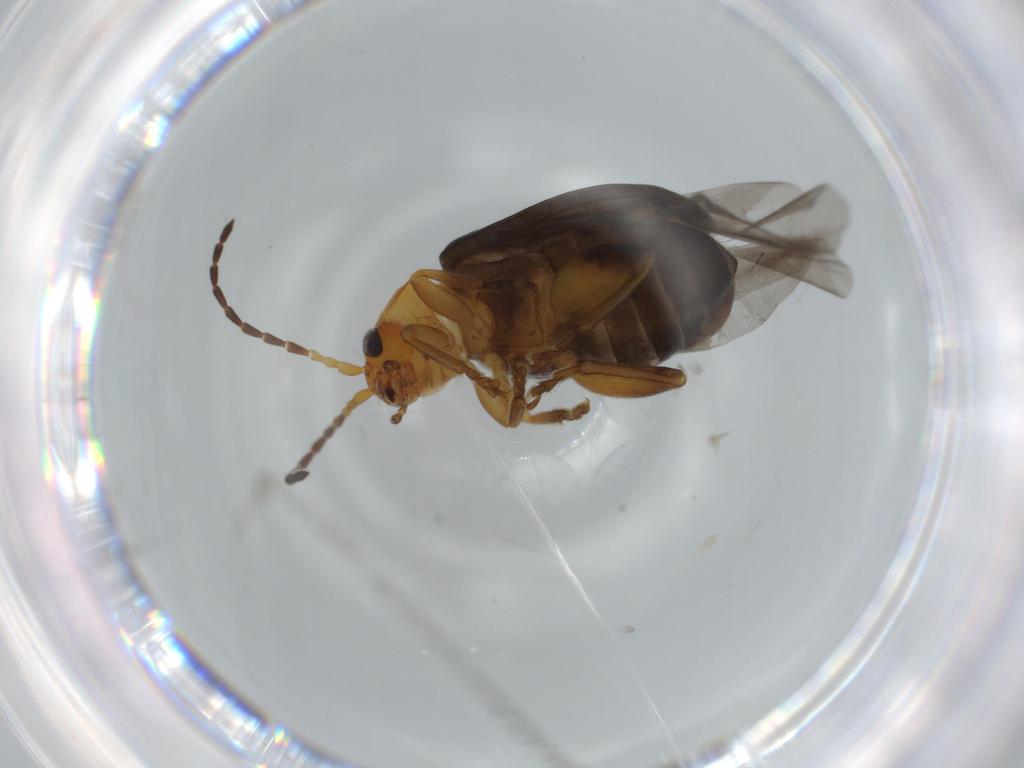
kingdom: Animalia
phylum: Arthropoda
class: Insecta
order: Coleoptera
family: Chrysomelidae
